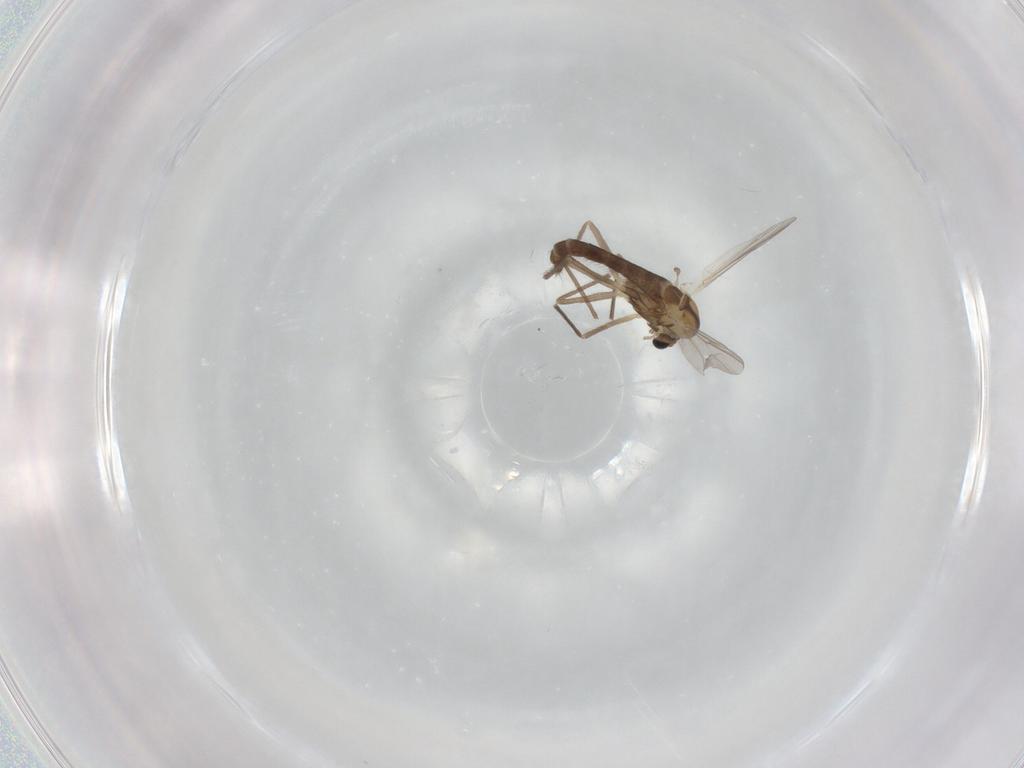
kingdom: Animalia
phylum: Arthropoda
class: Insecta
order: Diptera
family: Chironomidae
